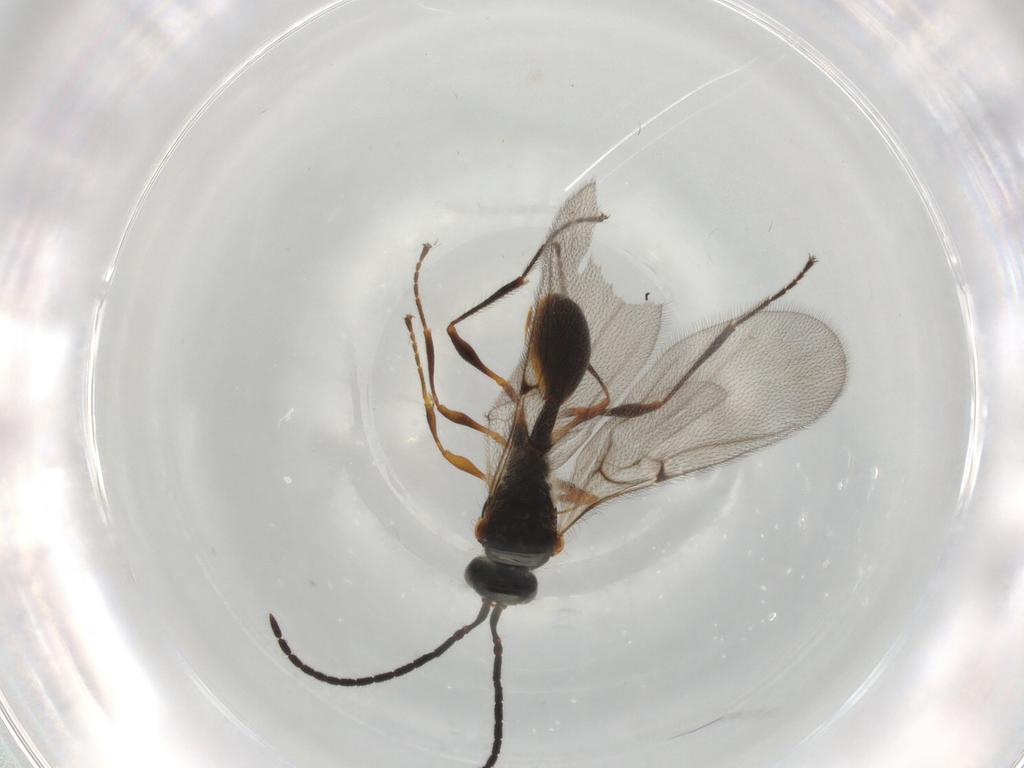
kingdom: Animalia
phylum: Arthropoda
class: Insecta
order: Hymenoptera
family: Diapriidae
